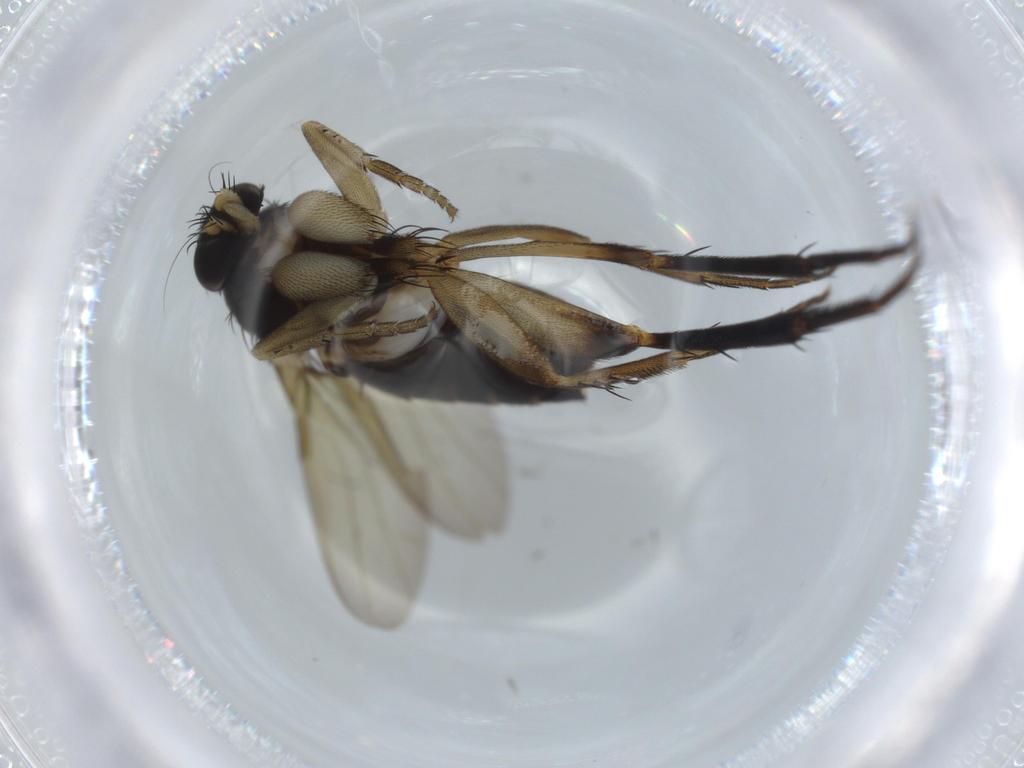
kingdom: Animalia
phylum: Arthropoda
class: Insecta
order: Diptera
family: Phoridae
